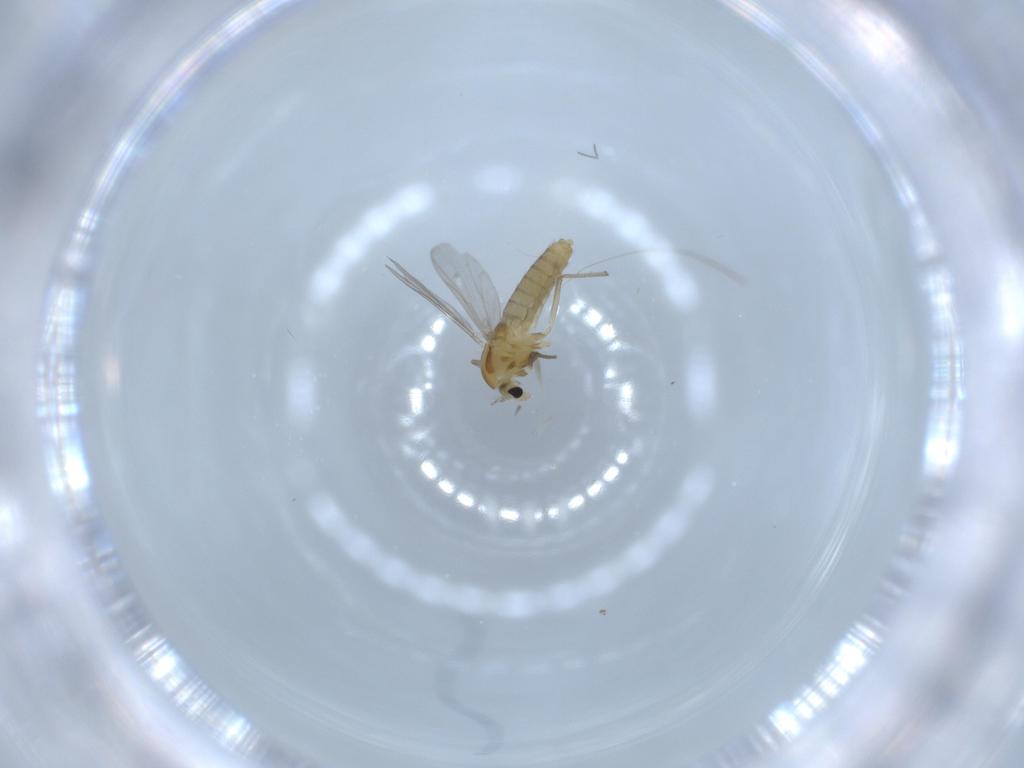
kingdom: Animalia
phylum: Arthropoda
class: Insecta
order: Diptera
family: Chironomidae
